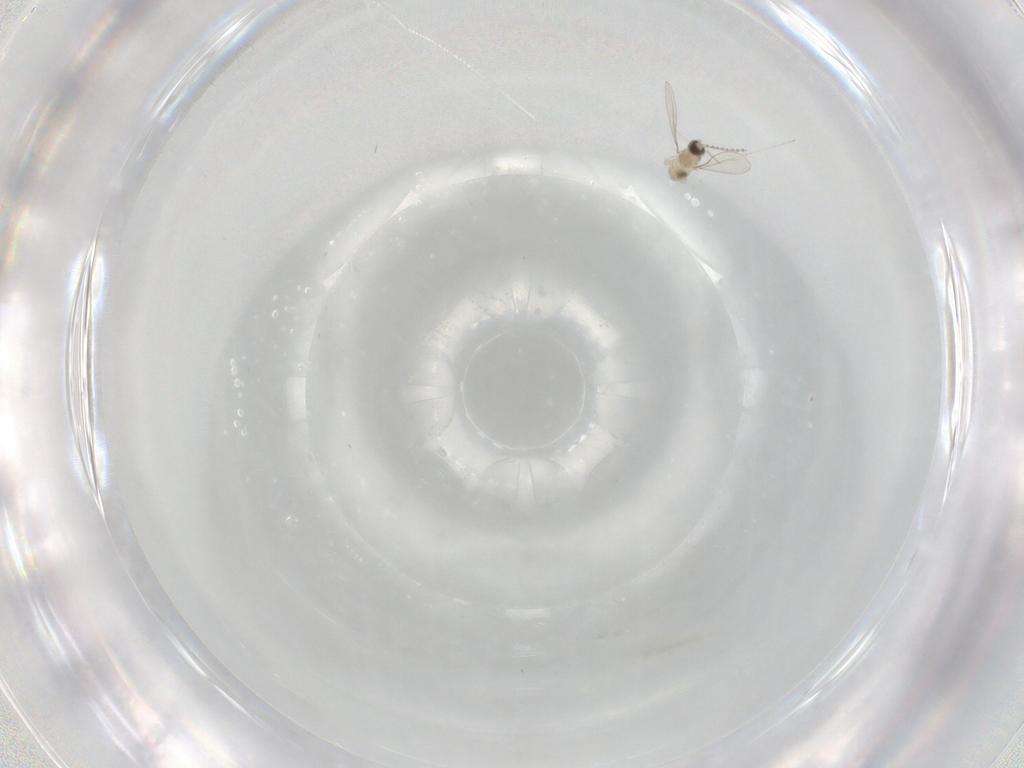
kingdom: Animalia
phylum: Arthropoda
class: Insecta
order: Diptera
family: Cecidomyiidae
